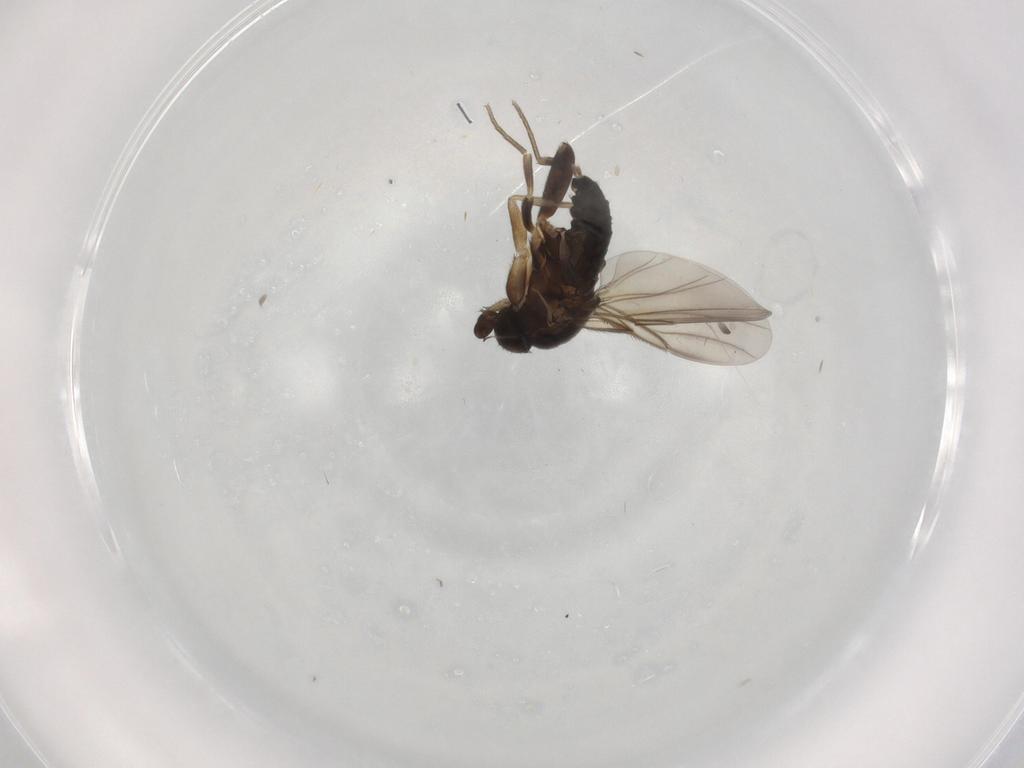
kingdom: Animalia
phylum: Arthropoda
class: Insecta
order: Diptera
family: Phoridae
